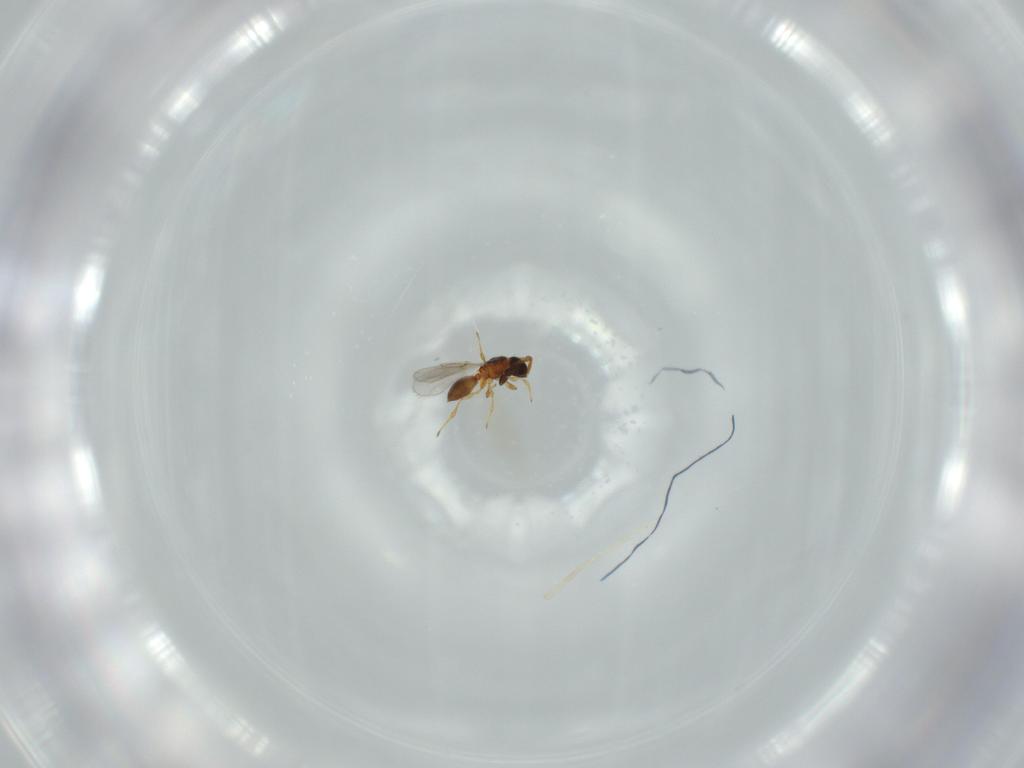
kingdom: Animalia
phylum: Arthropoda
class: Insecta
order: Hymenoptera
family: Diapriidae
